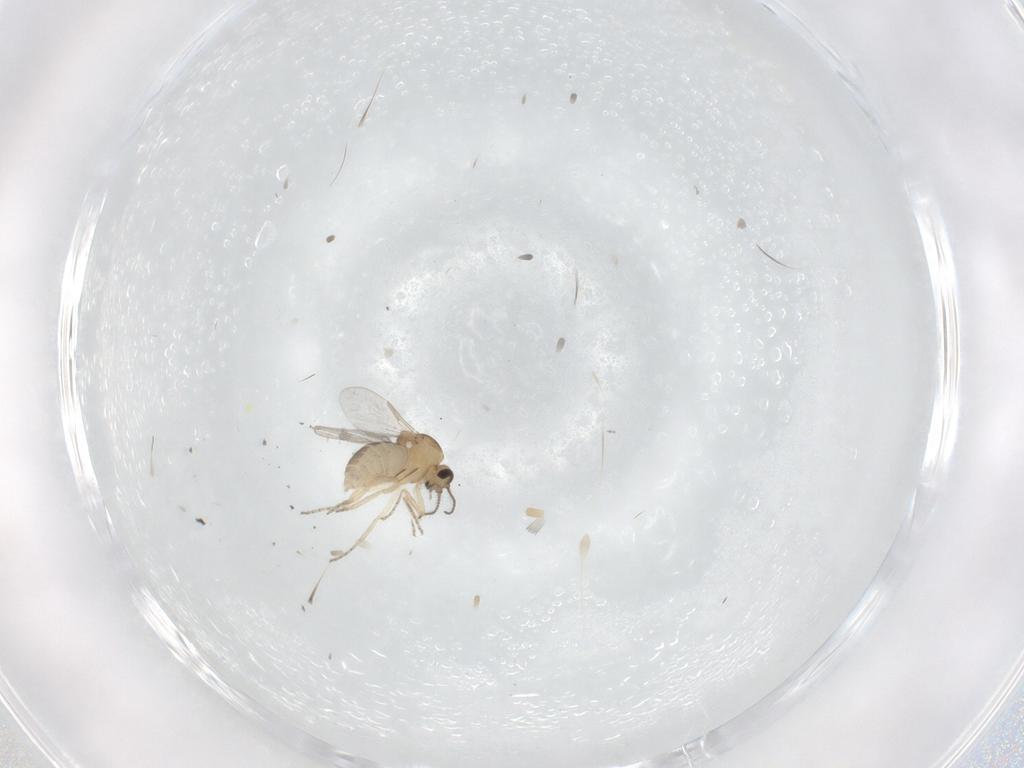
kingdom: Animalia
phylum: Arthropoda
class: Insecta
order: Diptera
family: Ceratopogonidae
